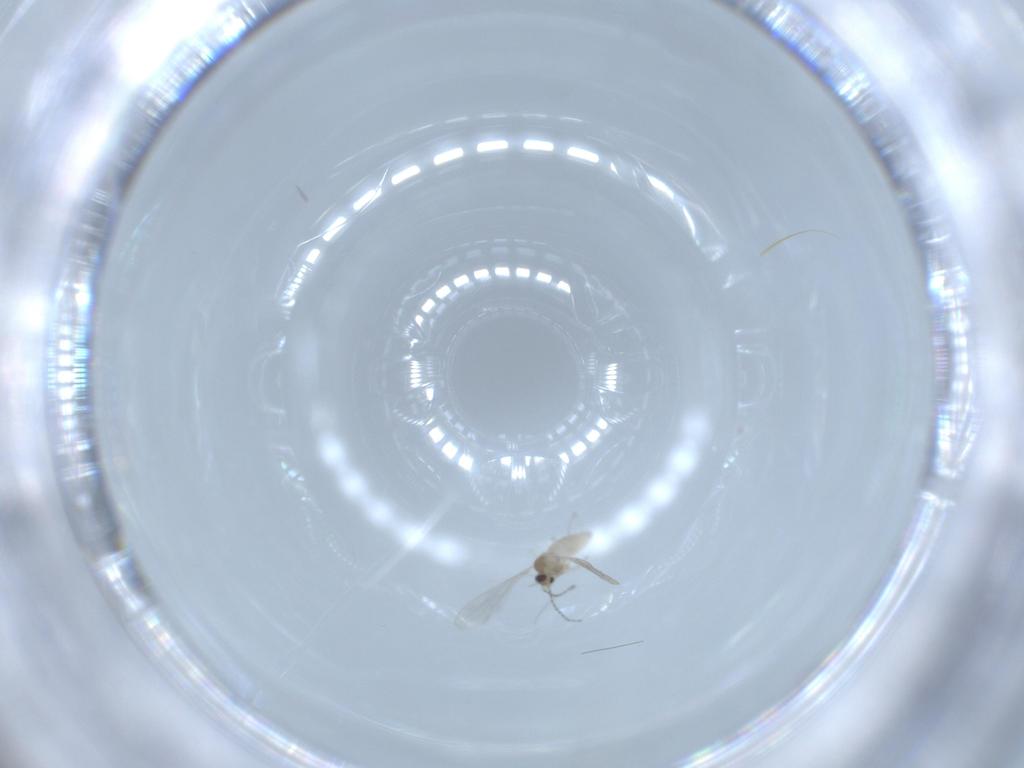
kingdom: Animalia
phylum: Arthropoda
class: Insecta
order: Diptera
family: Cecidomyiidae
